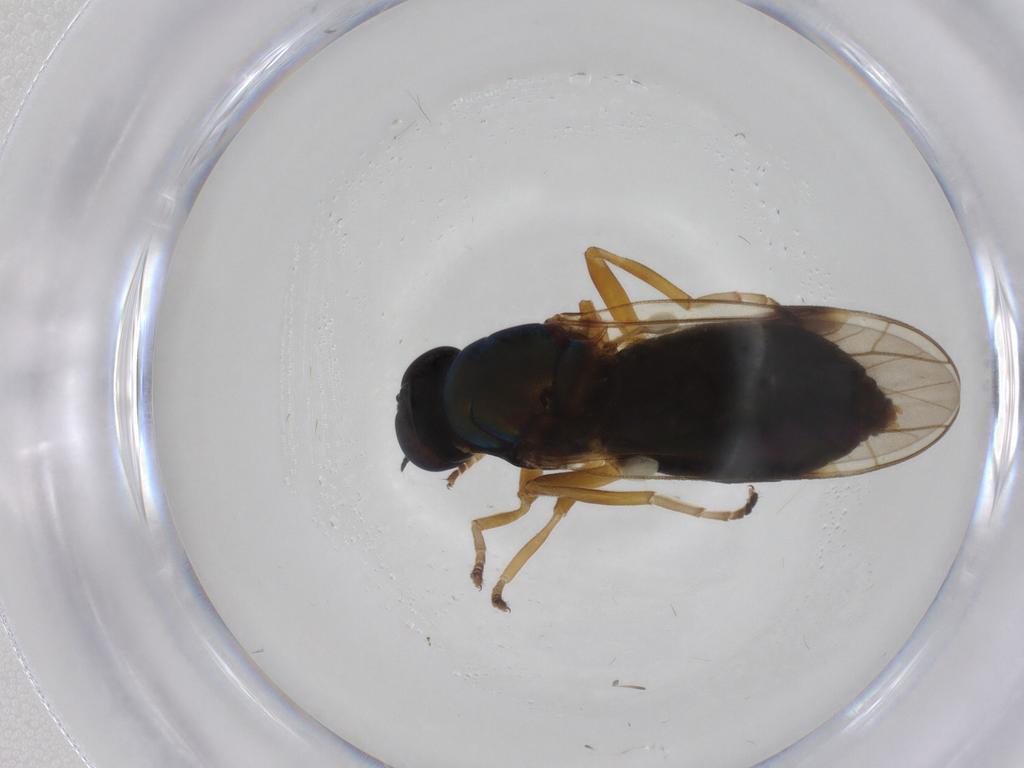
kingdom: Animalia
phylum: Arthropoda
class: Insecta
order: Diptera
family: Stratiomyidae
